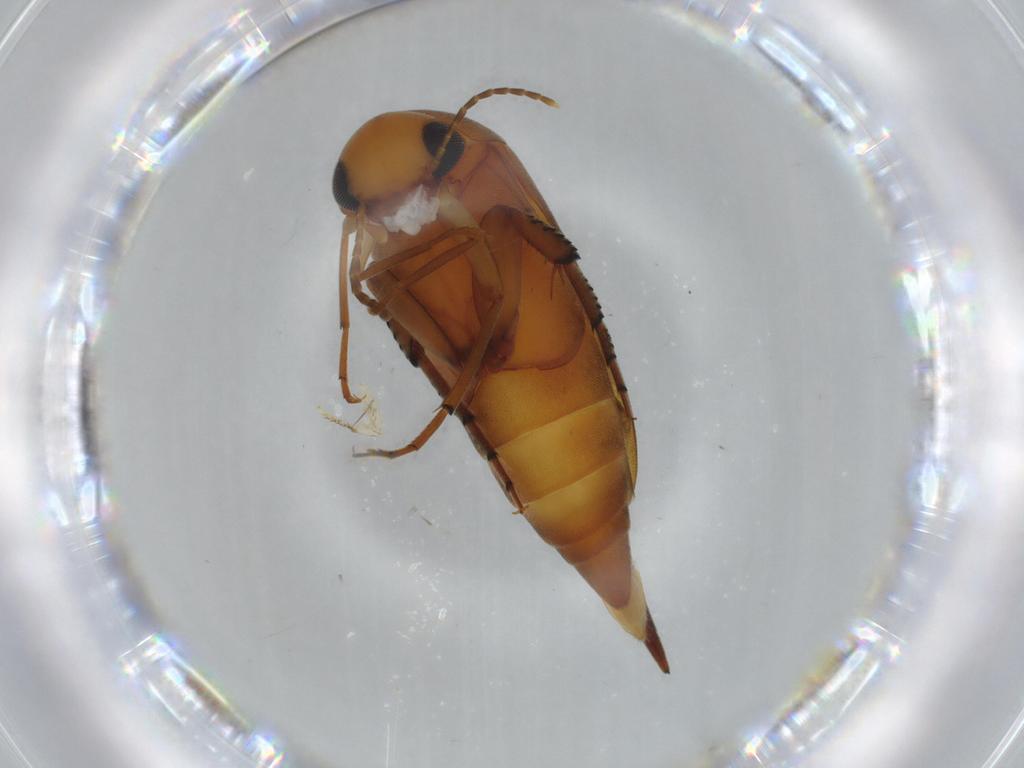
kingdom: Animalia
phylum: Arthropoda
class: Insecta
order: Coleoptera
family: Mordellidae
